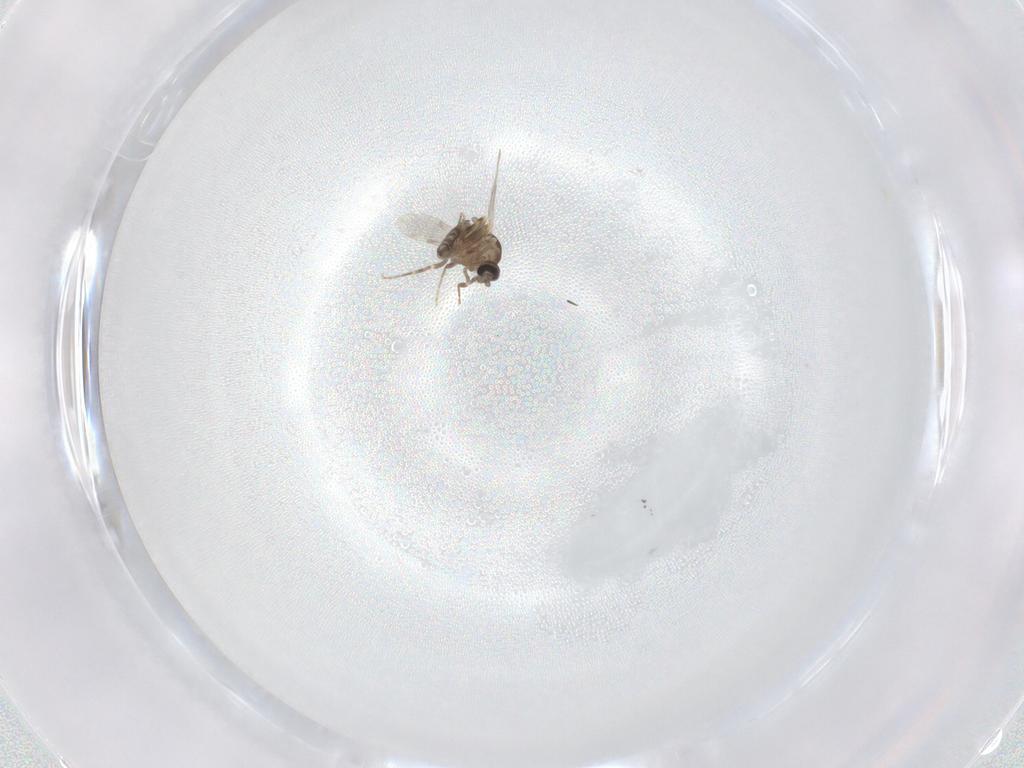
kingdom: Animalia
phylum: Arthropoda
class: Insecta
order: Diptera
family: Ceratopogonidae
